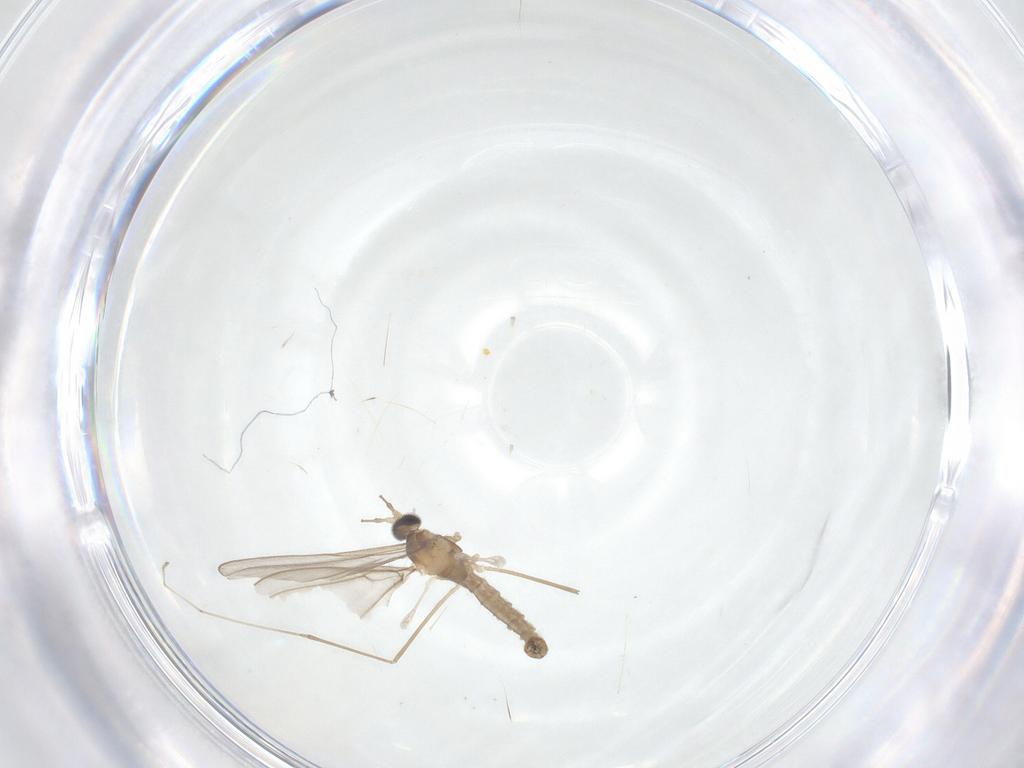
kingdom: Animalia
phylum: Arthropoda
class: Insecta
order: Diptera
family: Cecidomyiidae
